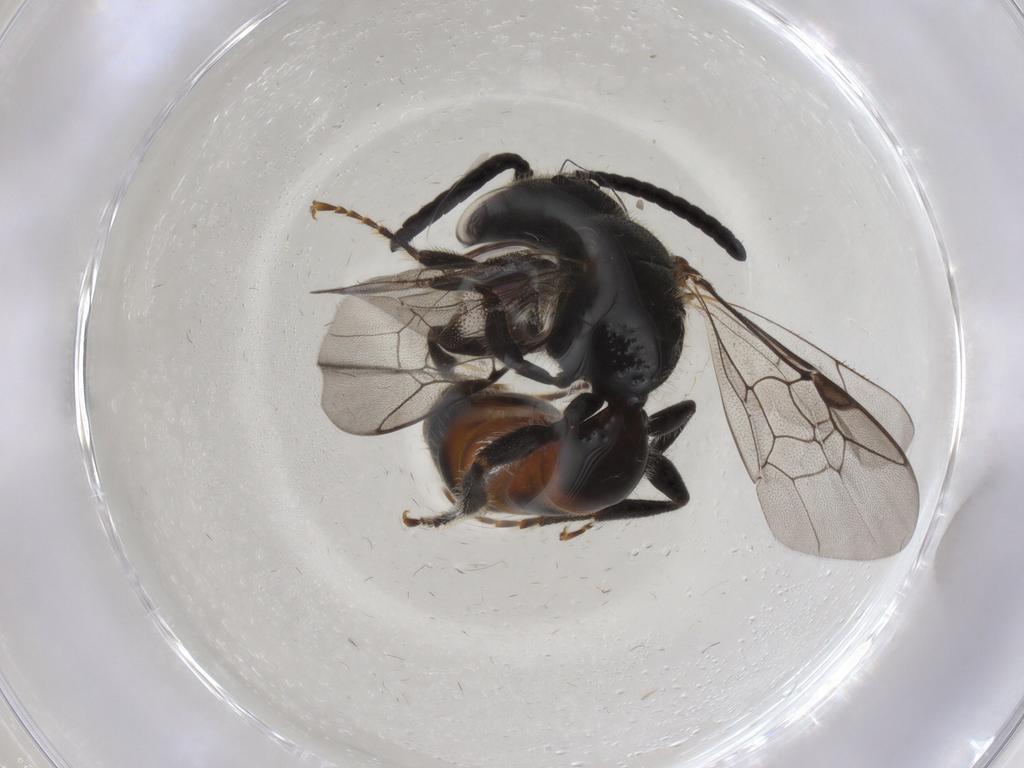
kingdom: Animalia
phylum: Arthropoda
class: Insecta
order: Hymenoptera
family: Halictidae
